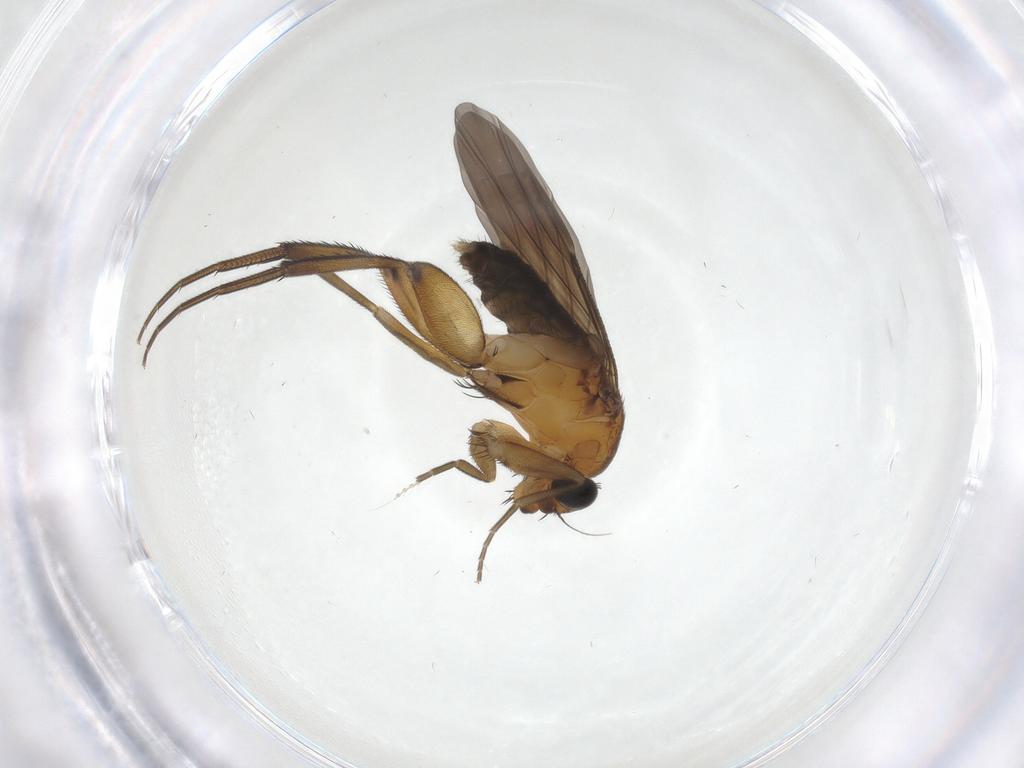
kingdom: Animalia
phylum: Arthropoda
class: Insecta
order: Diptera
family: Phoridae
